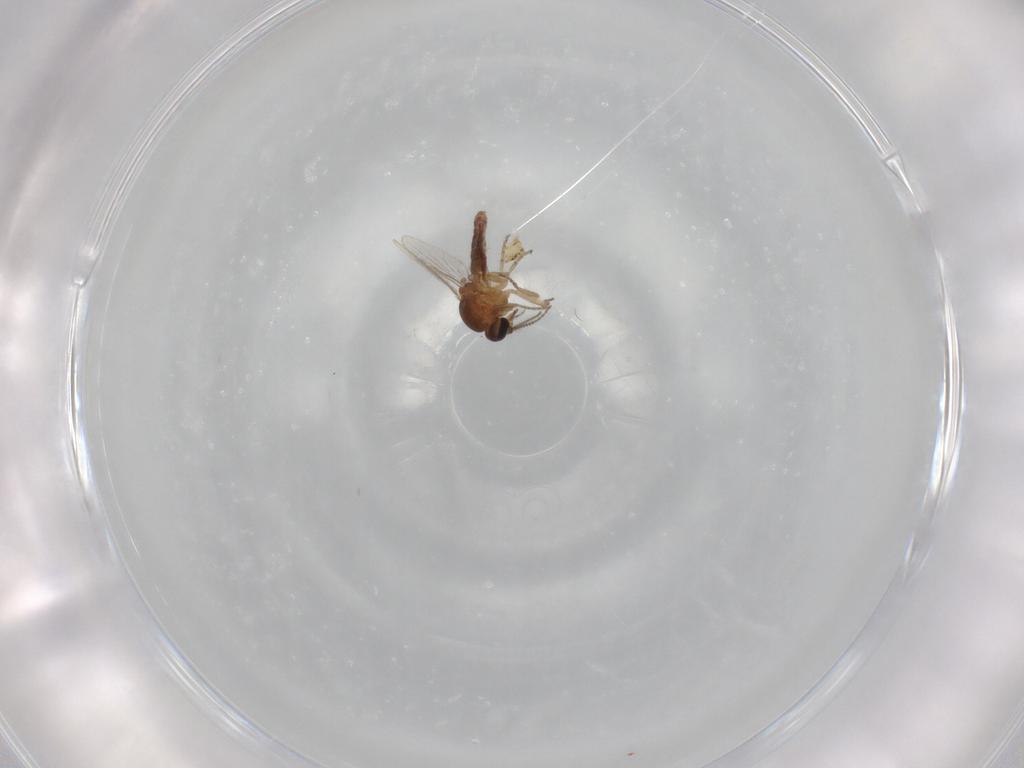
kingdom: Animalia
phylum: Arthropoda
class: Insecta
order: Diptera
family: Ceratopogonidae
